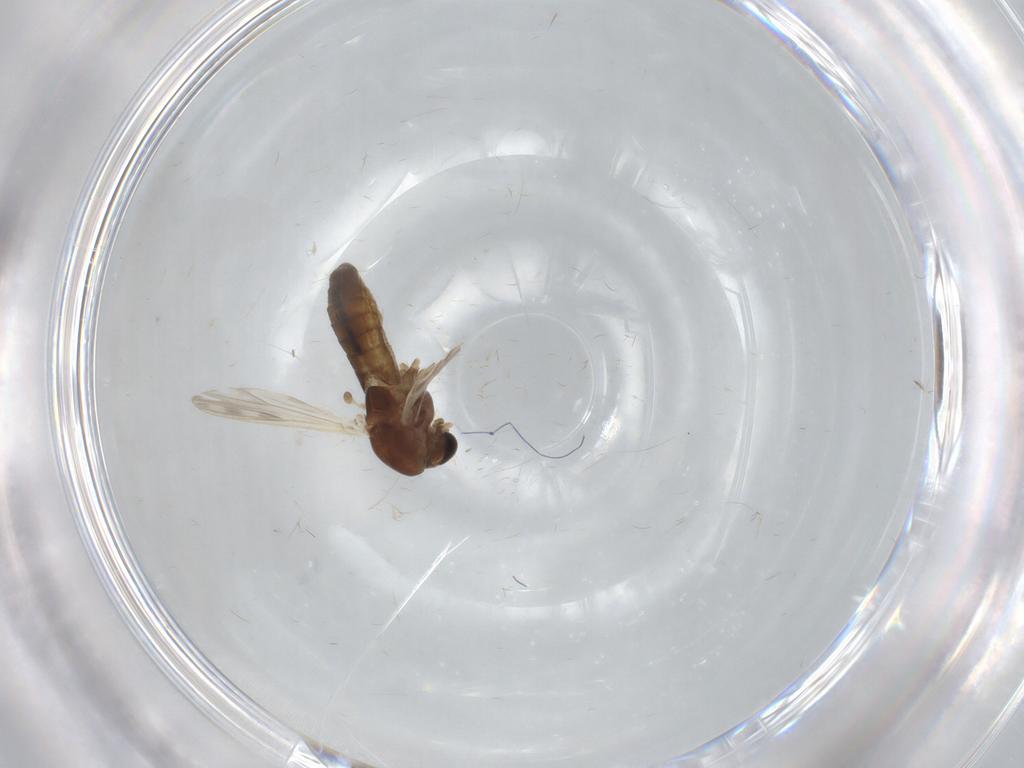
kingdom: Animalia
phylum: Arthropoda
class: Insecta
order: Diptera
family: Chironomidae
